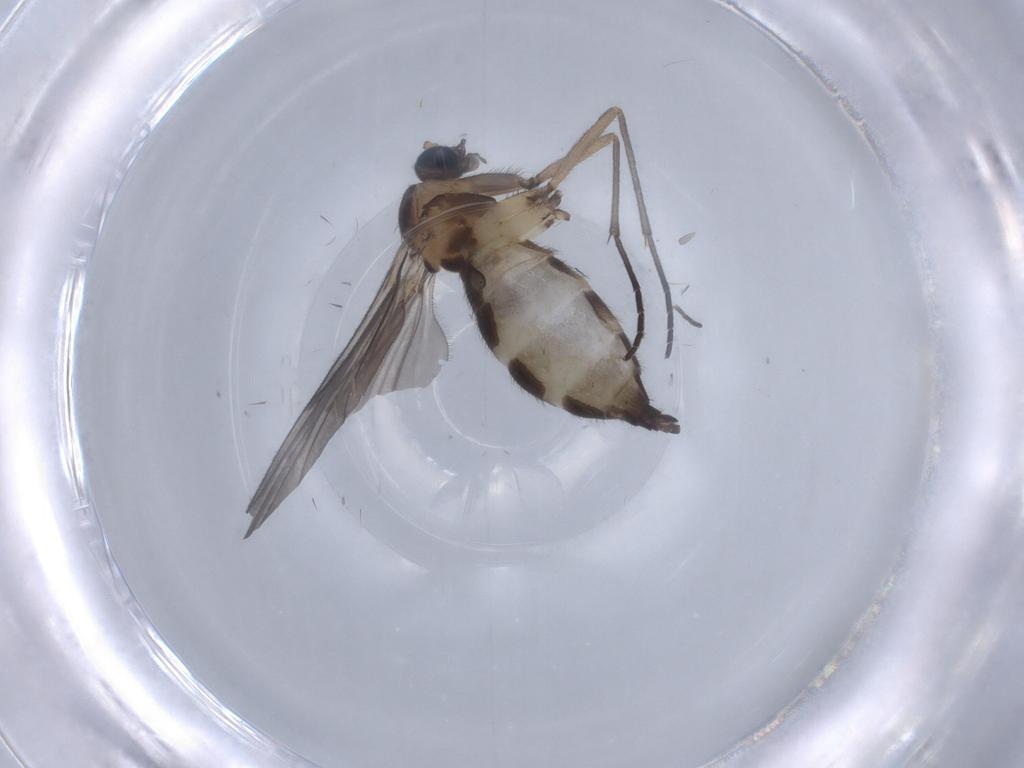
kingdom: Animalia
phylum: Arthropoda
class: Insecta
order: Diptera
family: Sciaridae
